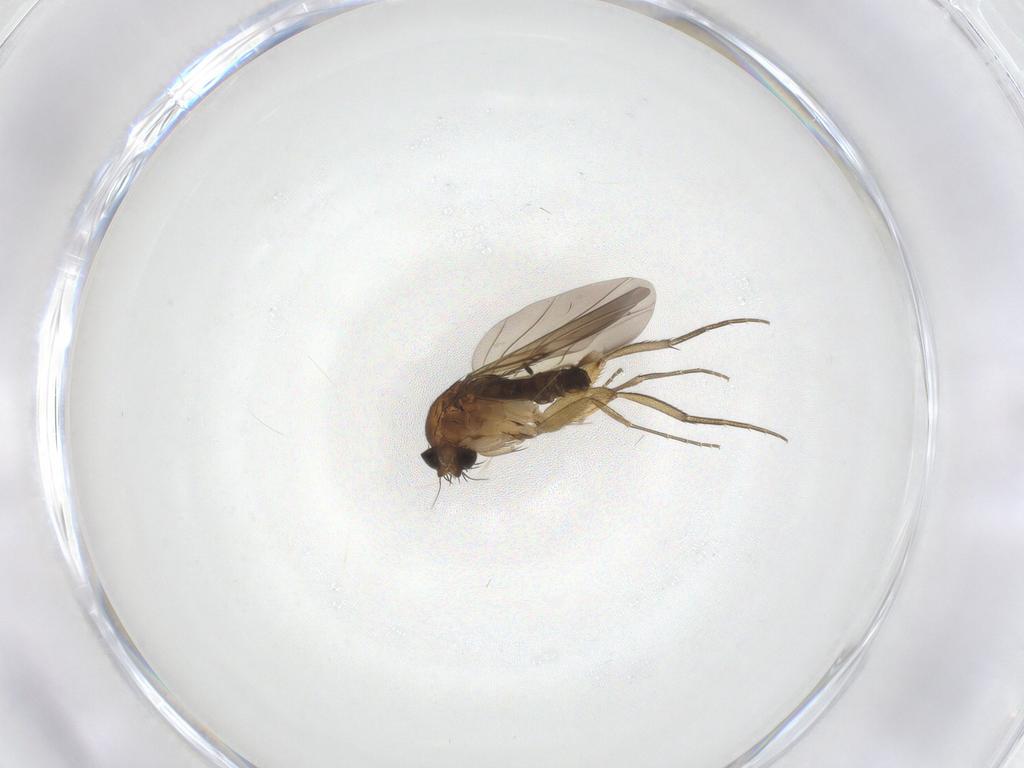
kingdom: Animalia
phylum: Arthropoda
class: Insecta
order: Diptera
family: Phoridae
